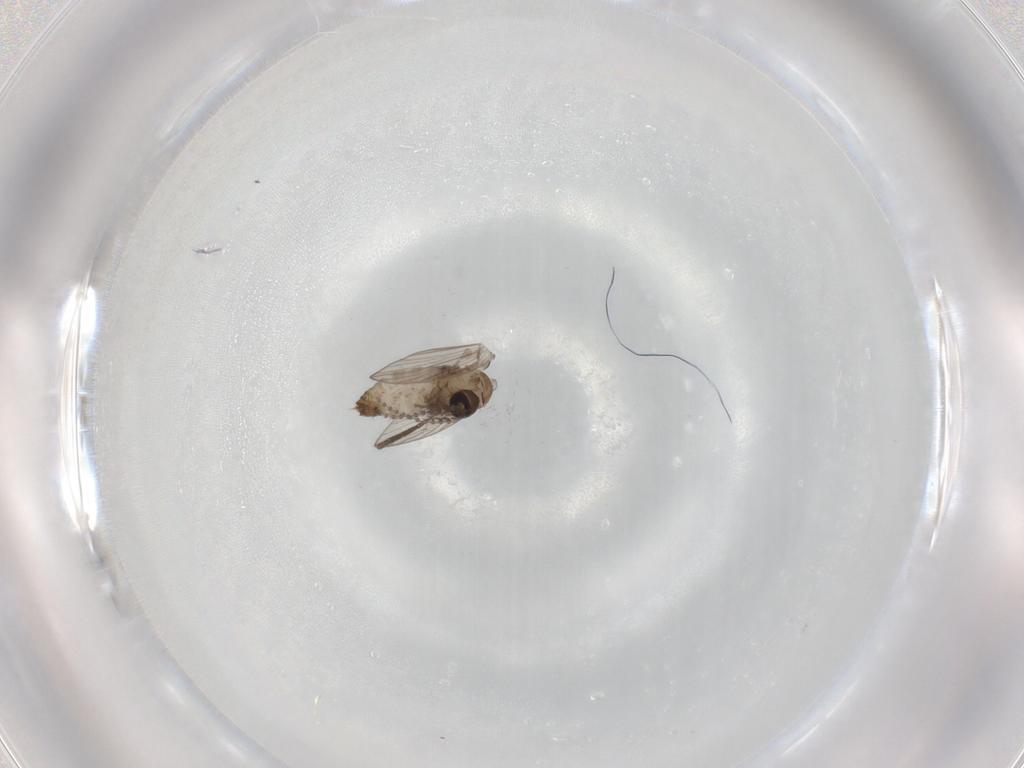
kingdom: Animalia
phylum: Arthropoda
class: Insecta
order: Diptera
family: Psychodidae
